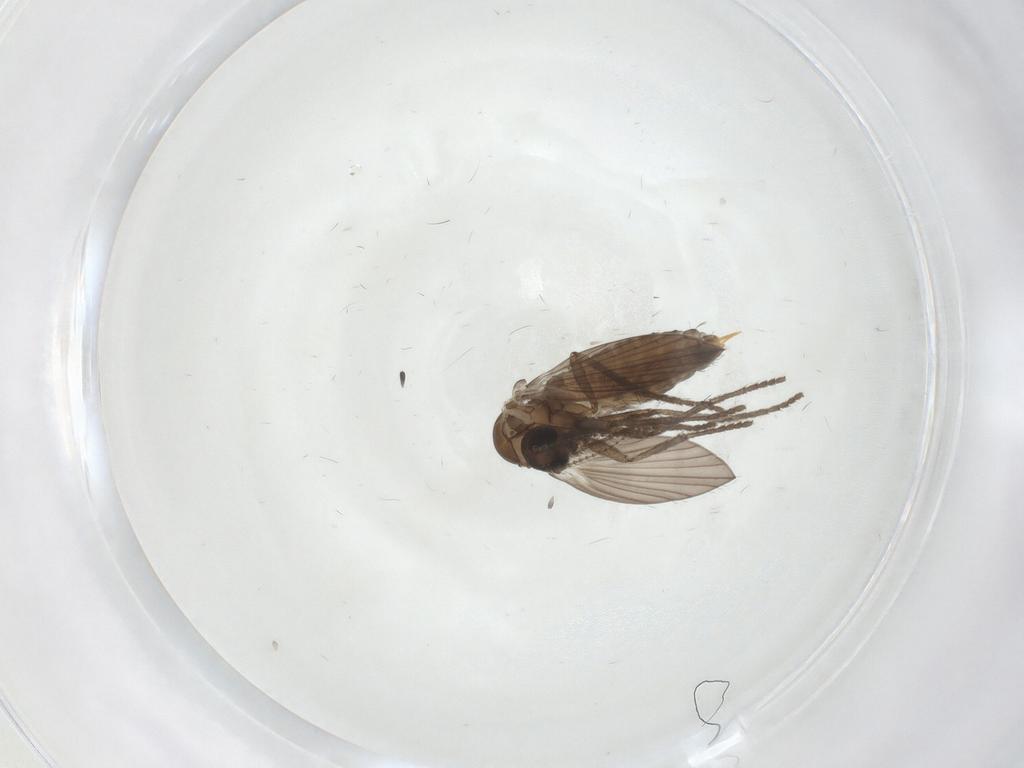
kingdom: Animalia
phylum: Arthropoda
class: Insecta
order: Diptera
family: Phoridae
